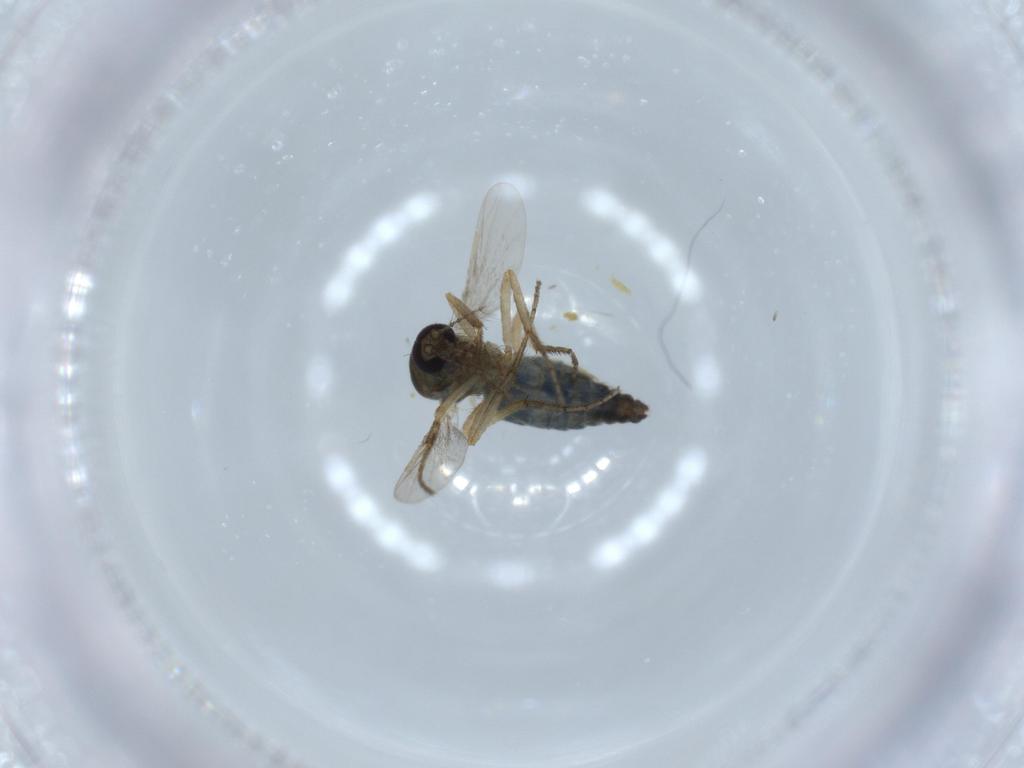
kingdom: Animalia
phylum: Arthropoda
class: Insecta
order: Diptera
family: Ceratopogonidae
